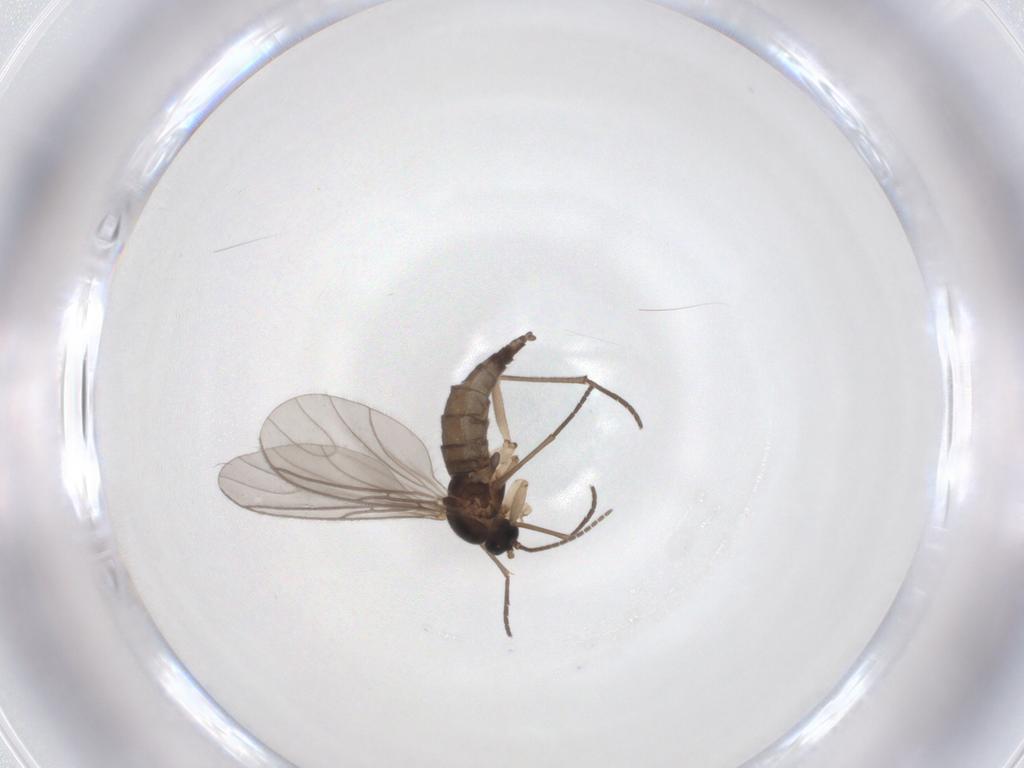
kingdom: Animalia
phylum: Arthropoda
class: Insecta
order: Diptera
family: Sciaridae
